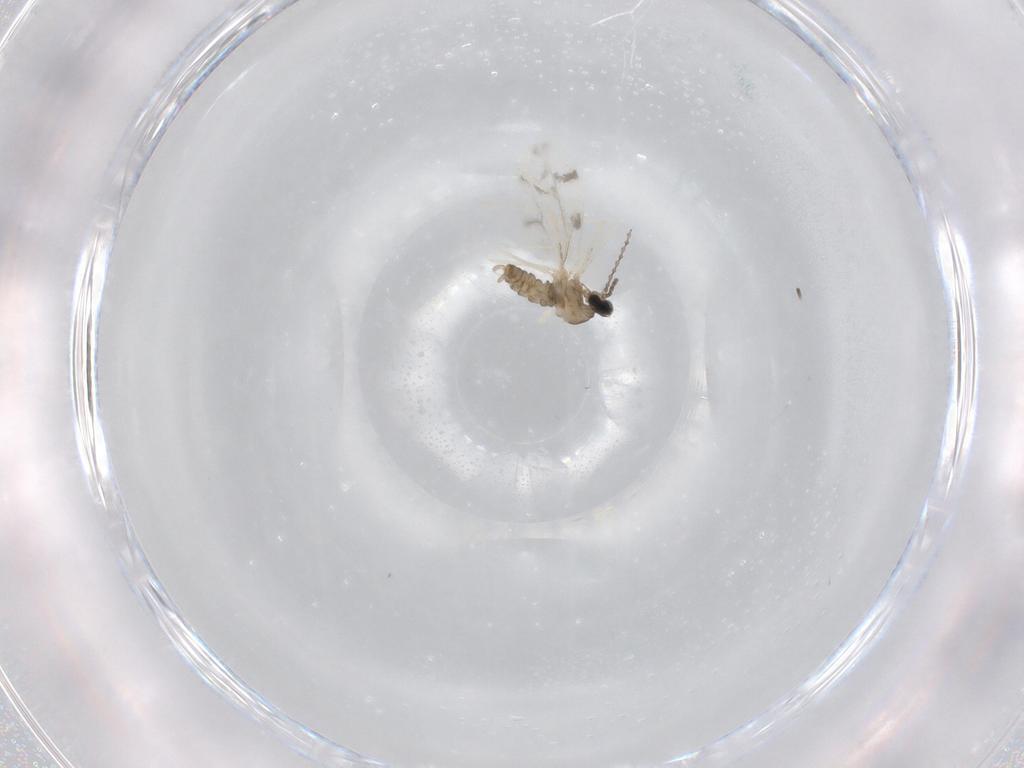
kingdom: Animalia
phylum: Arthropoda
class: Insecta
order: Diptera
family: Cecidomyiidae
